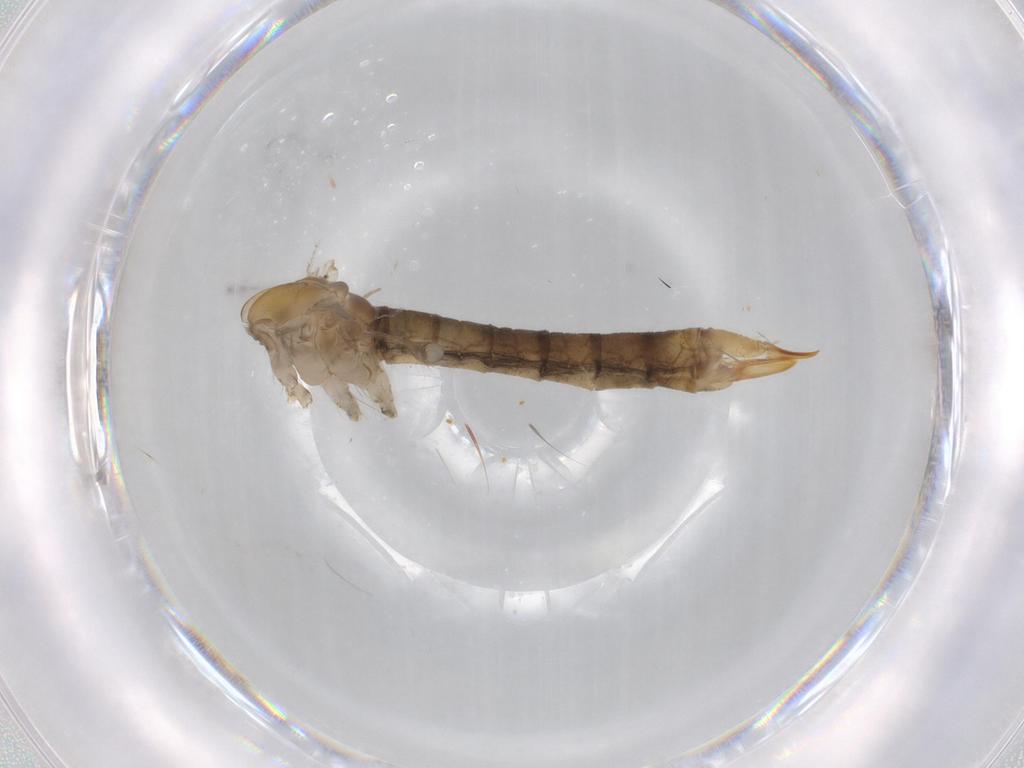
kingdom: Animalia
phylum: Arthropoda
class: Insecta
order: Diptera
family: Limoniidae
